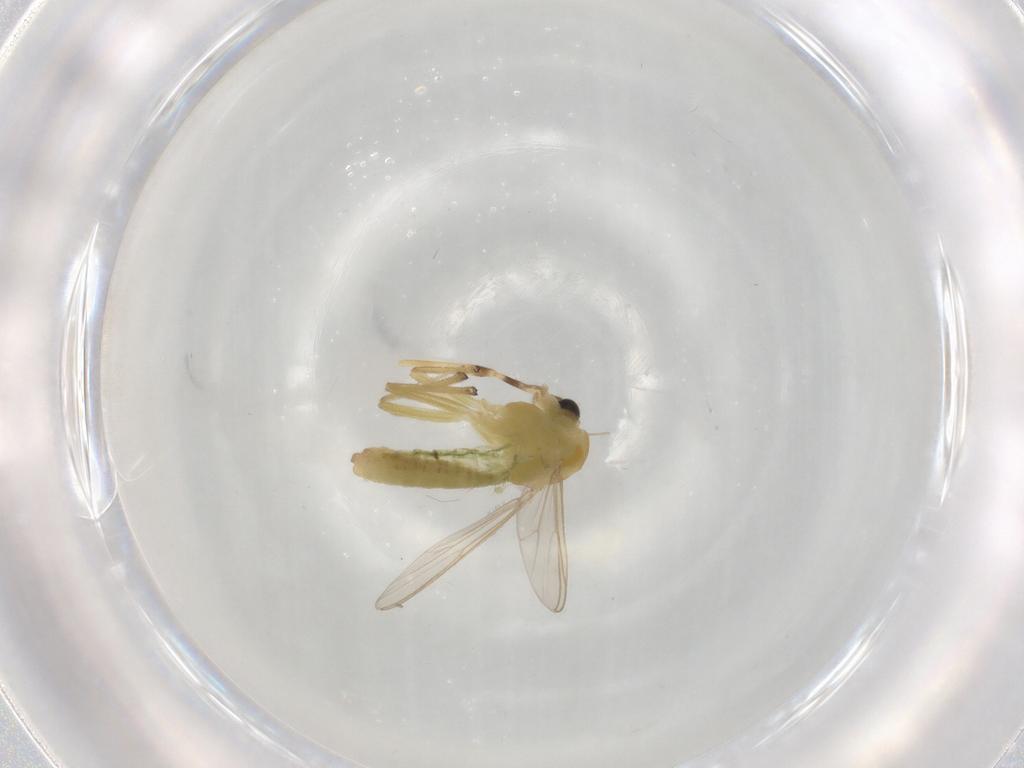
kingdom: Animalia
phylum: Arthropoda
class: Insecta
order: Diptera
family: Chironomidae
